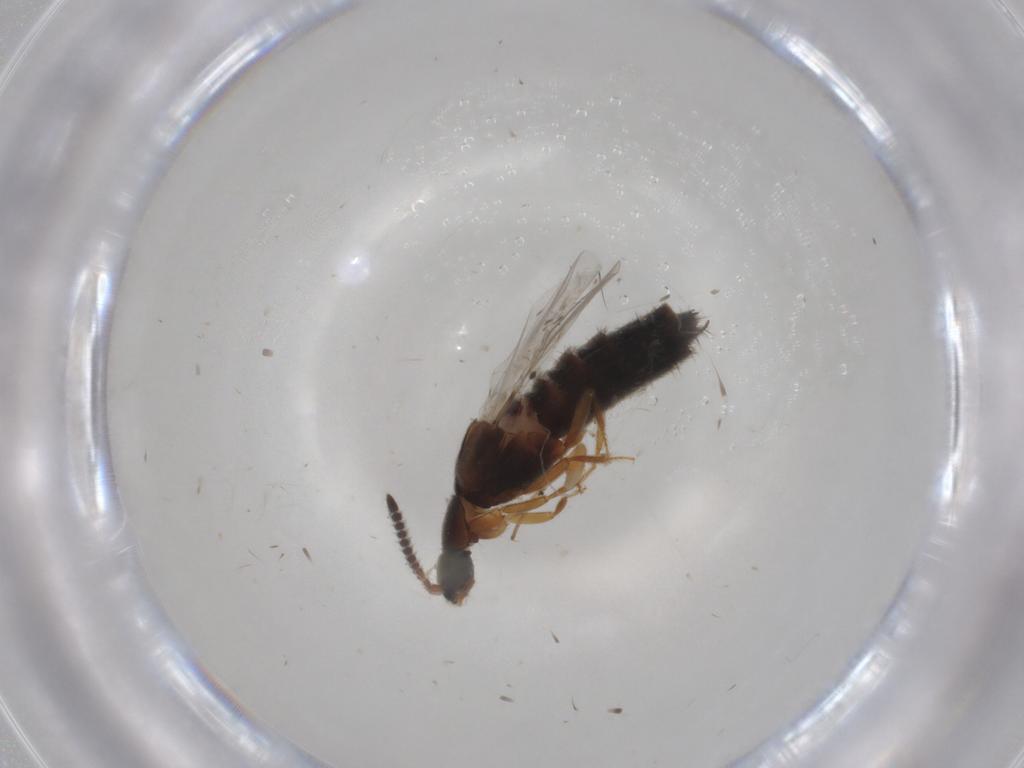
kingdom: Animalia
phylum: Arthropoda
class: Insecta
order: Coleoptera
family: Staphylinidae
